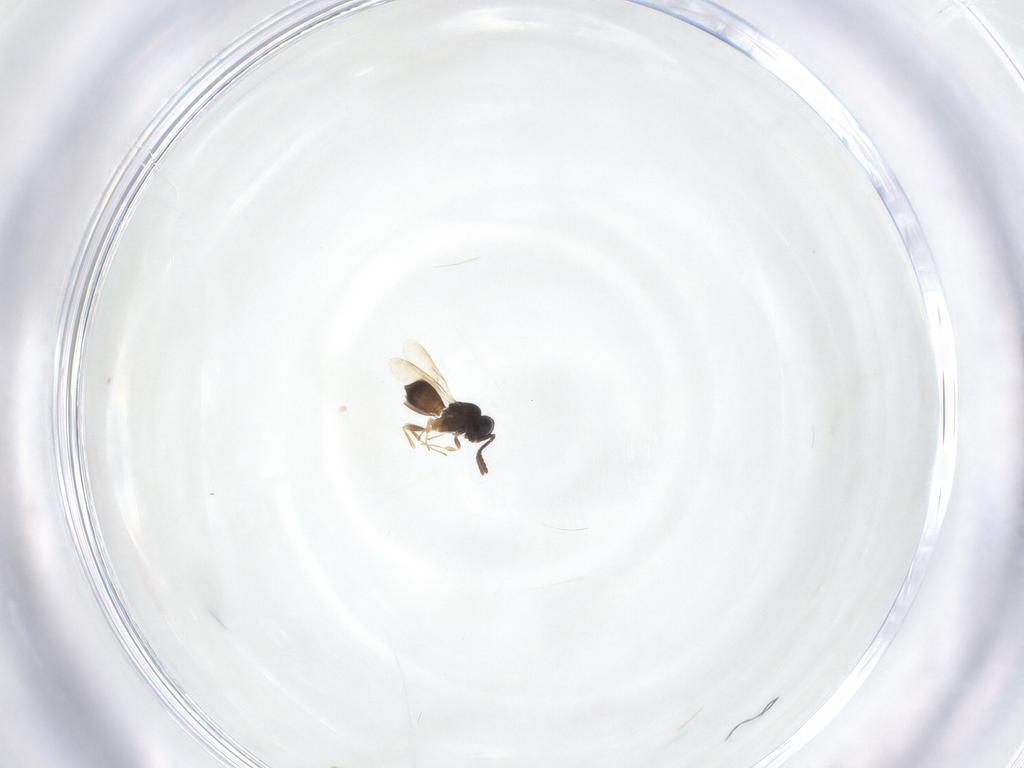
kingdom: Animalia
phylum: Arthropoda
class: Insecta
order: Hymenoptera
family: Scelionidae
